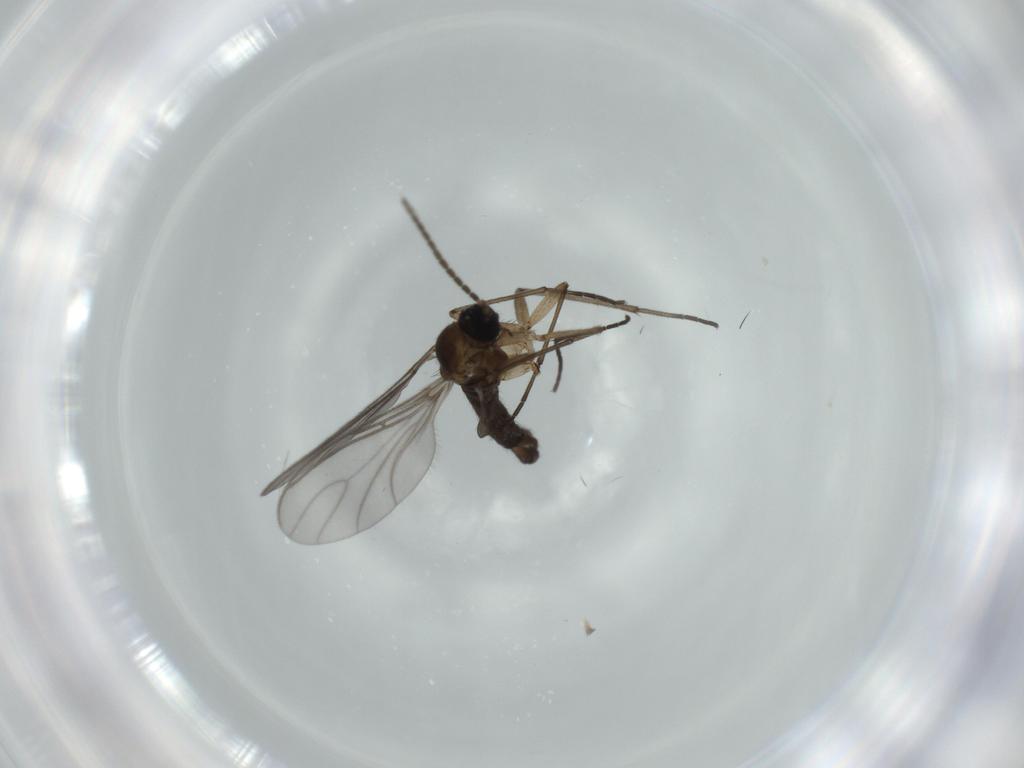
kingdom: Animalia
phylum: Arthropoda
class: Insecta
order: Diptera
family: Sciaridae
